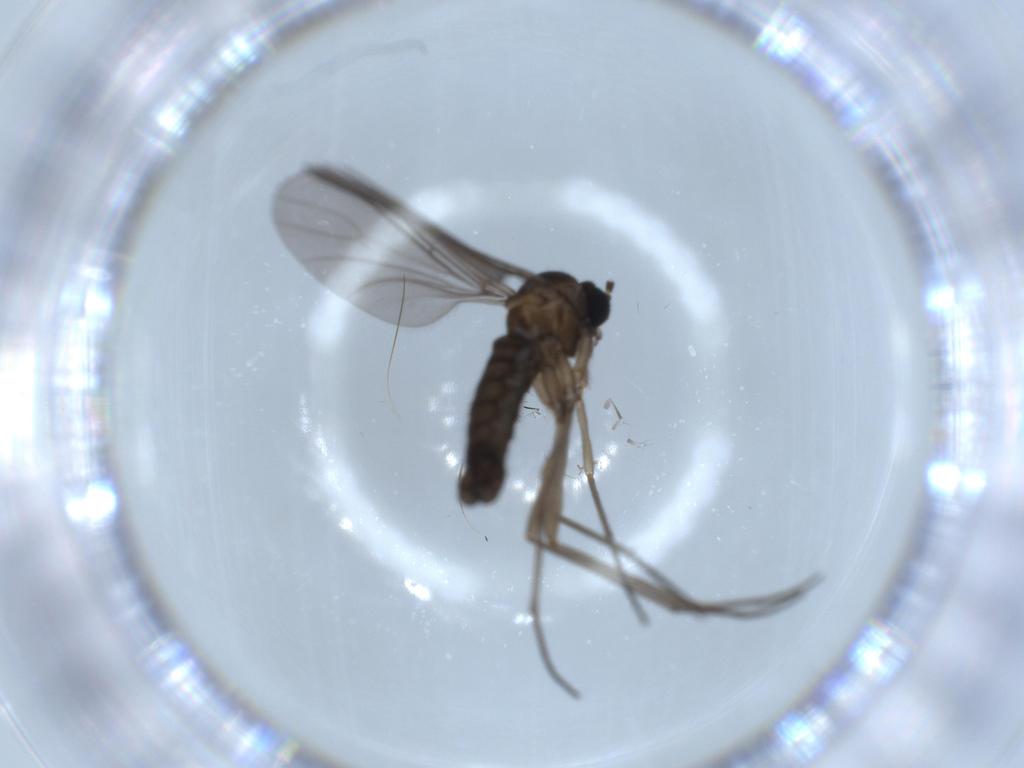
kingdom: Animalia
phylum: Arthropoda
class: Insecta
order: Diptera
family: Sciaridae
